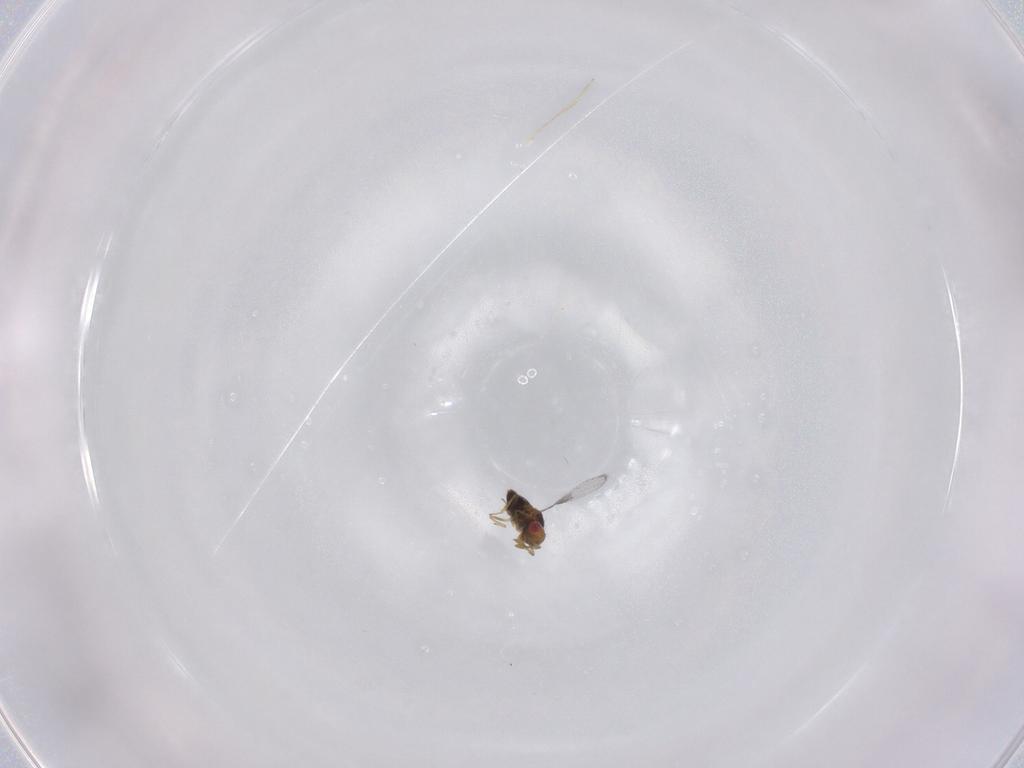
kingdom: Animalia
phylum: Arthropoda
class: Insecta
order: Hymenoptera
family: Trichogrammatidae
